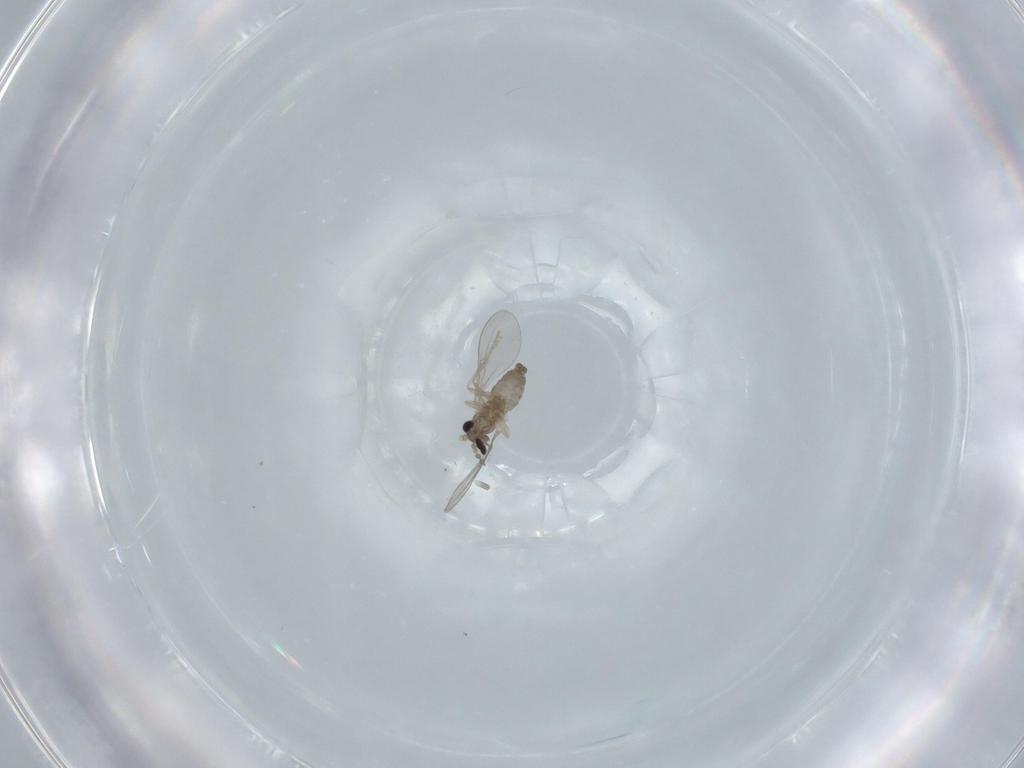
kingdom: Animalia
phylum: Arthropoda
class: Insecta
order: Diptera
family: Cecidomyiidae
